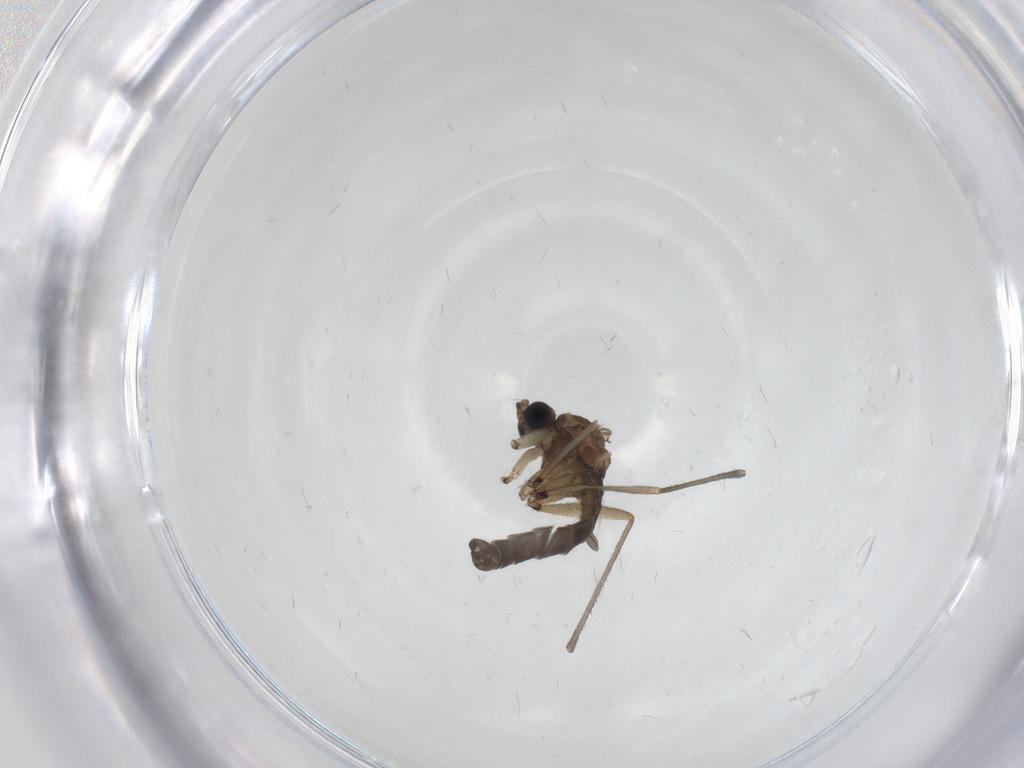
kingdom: Animalia
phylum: Arthropoda
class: Insecta
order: Diptera
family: Sciaridae
